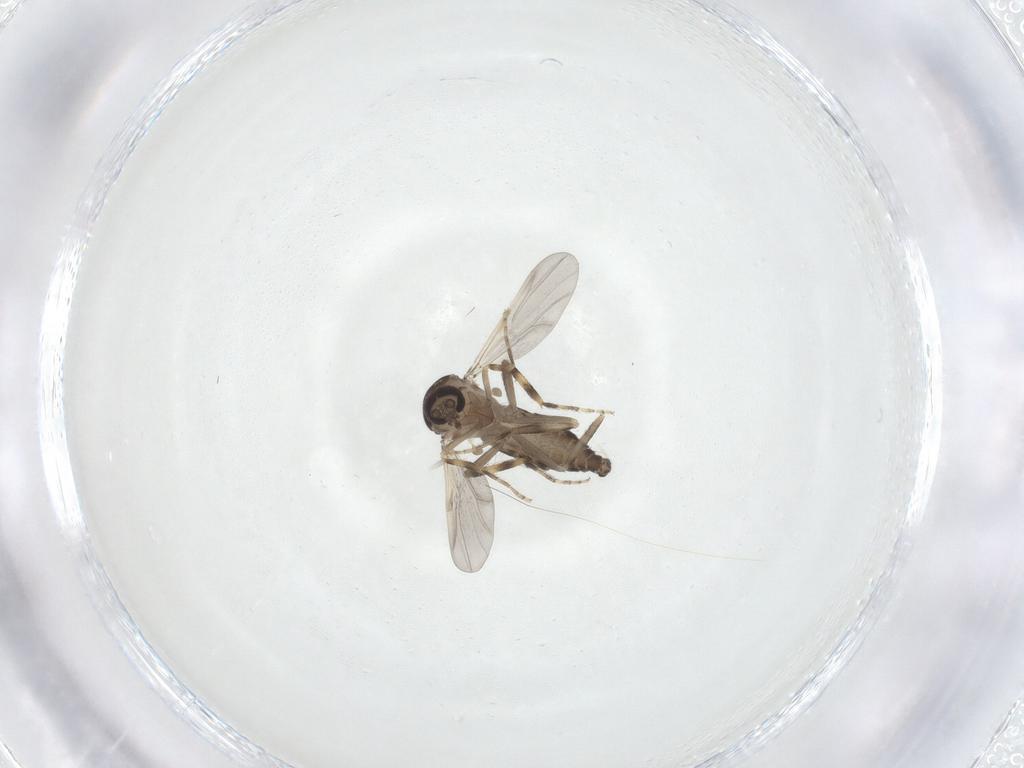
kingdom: Animalia
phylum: Arthropoda
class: Insecta
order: Diptera
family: Ceratopogonidae
